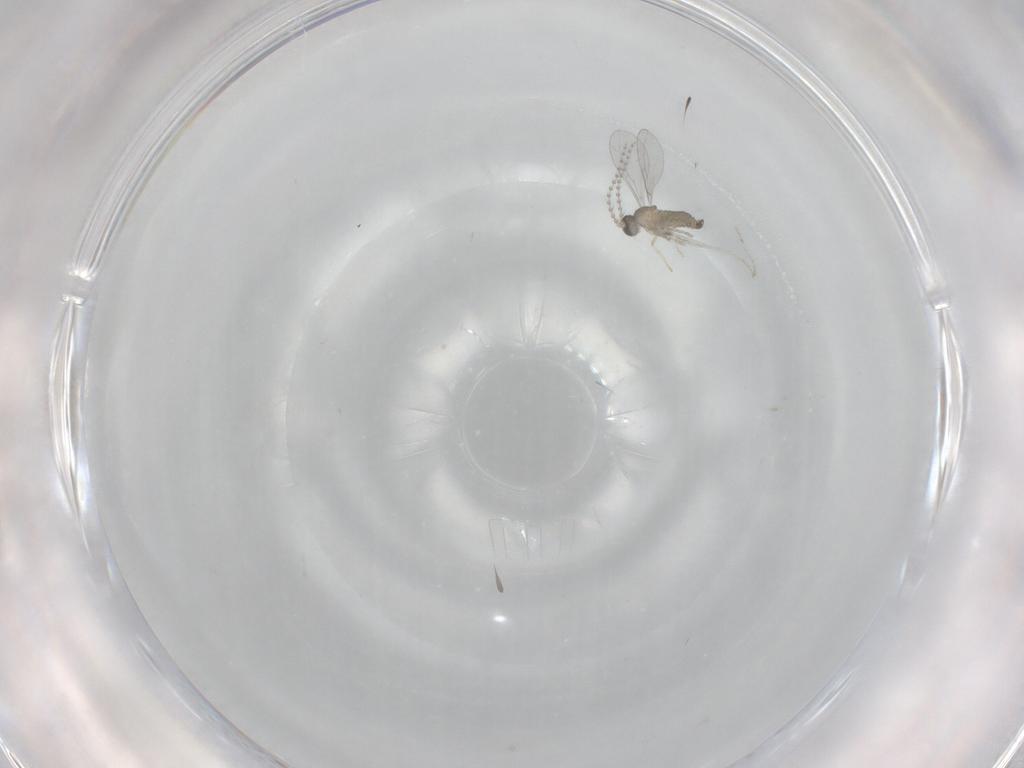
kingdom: Animalia
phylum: Arthropoda
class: Insecta
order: Diptera
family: Cecidomyiidae
